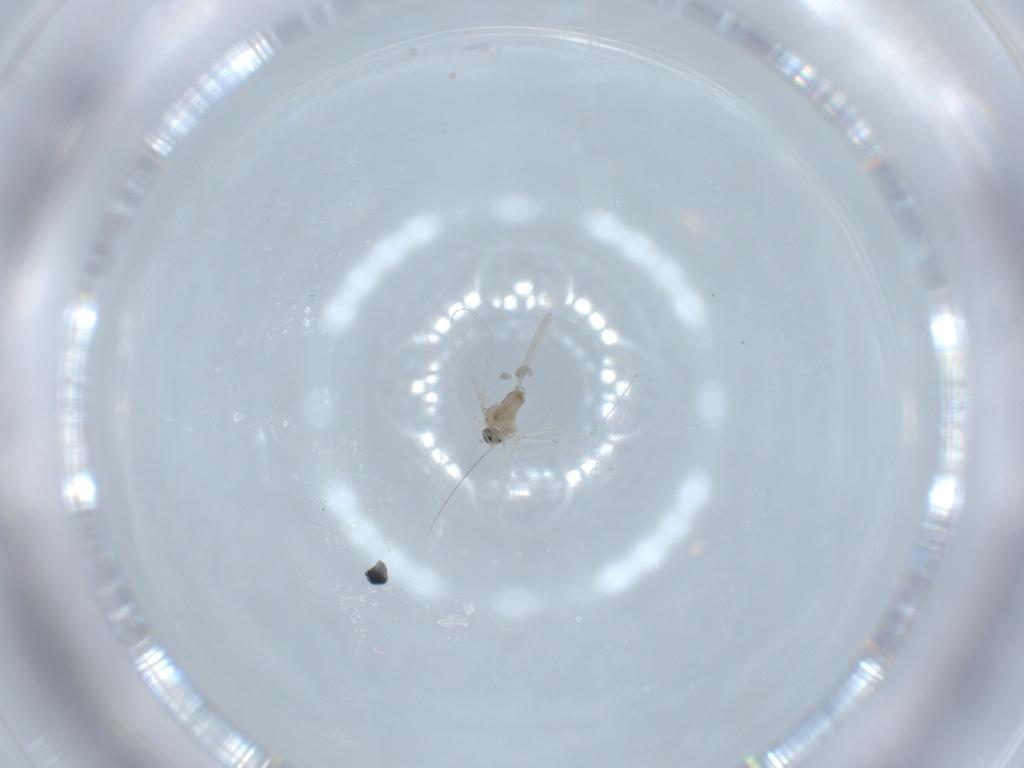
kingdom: Animalia
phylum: Arthropoda
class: Insecta
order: Diptera
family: Cecidomyiidae
